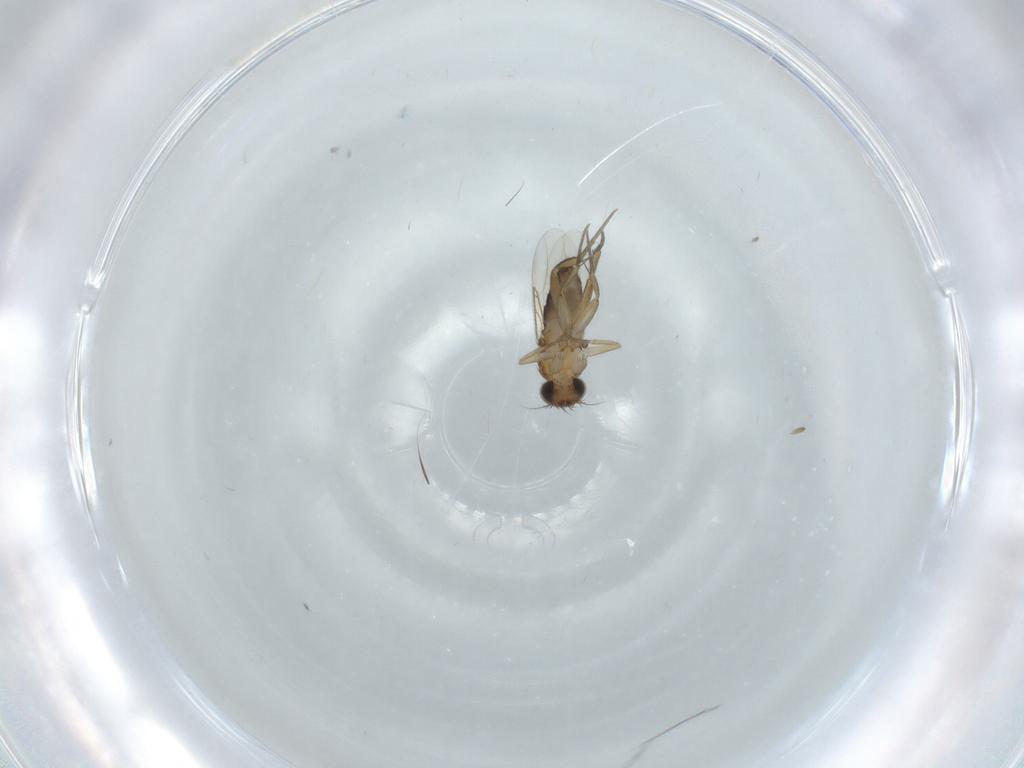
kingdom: Animalia
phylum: Arthropoda
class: Insecta
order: Diptera
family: Phoridae
